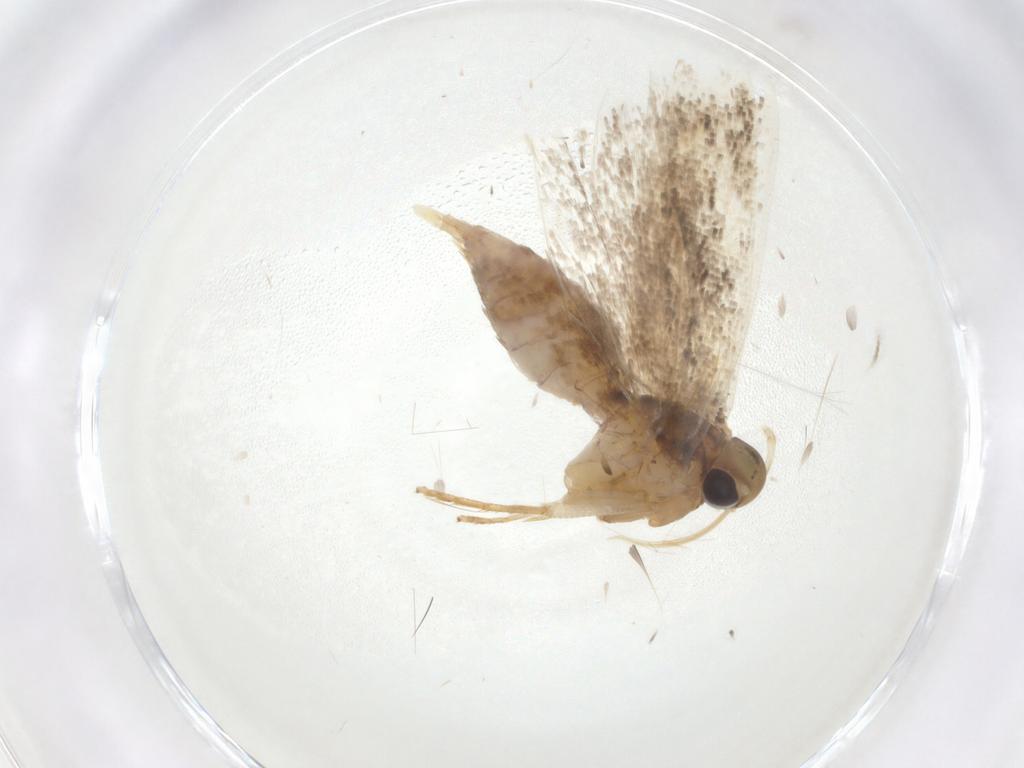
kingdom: Animalia
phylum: Arthropoda
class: Insecta
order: Lepidoptera
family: Gelechiidae
